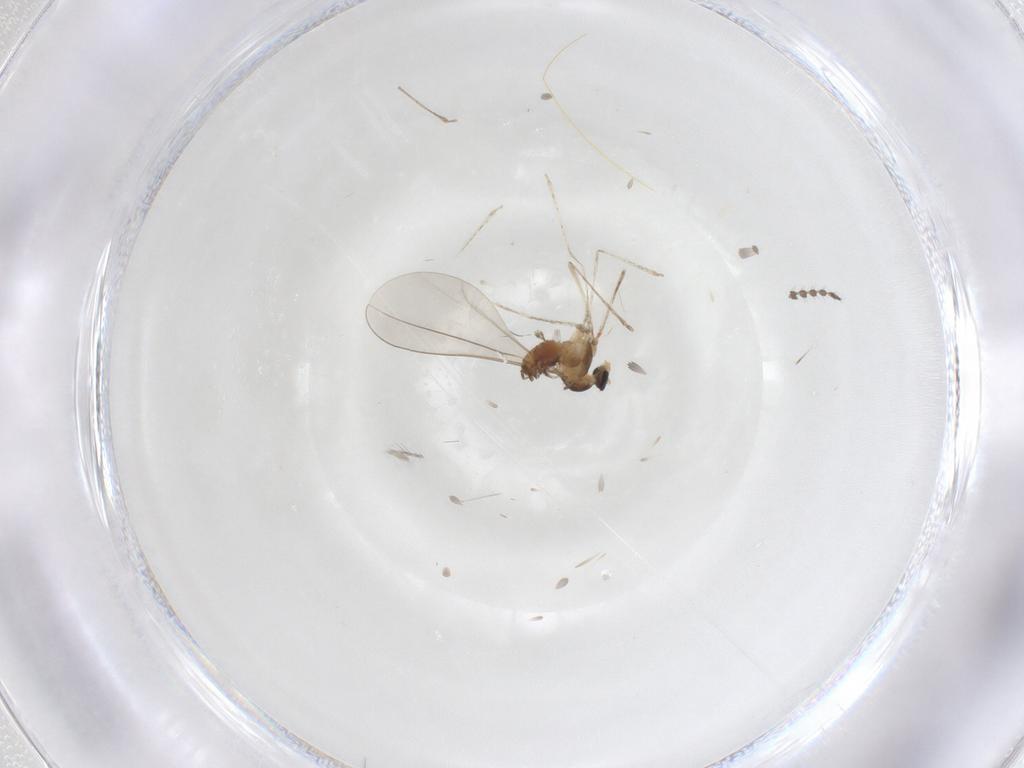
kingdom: Animalia
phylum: Arthropoda
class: Insecta
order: Diptera
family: Cecidomyiidae
